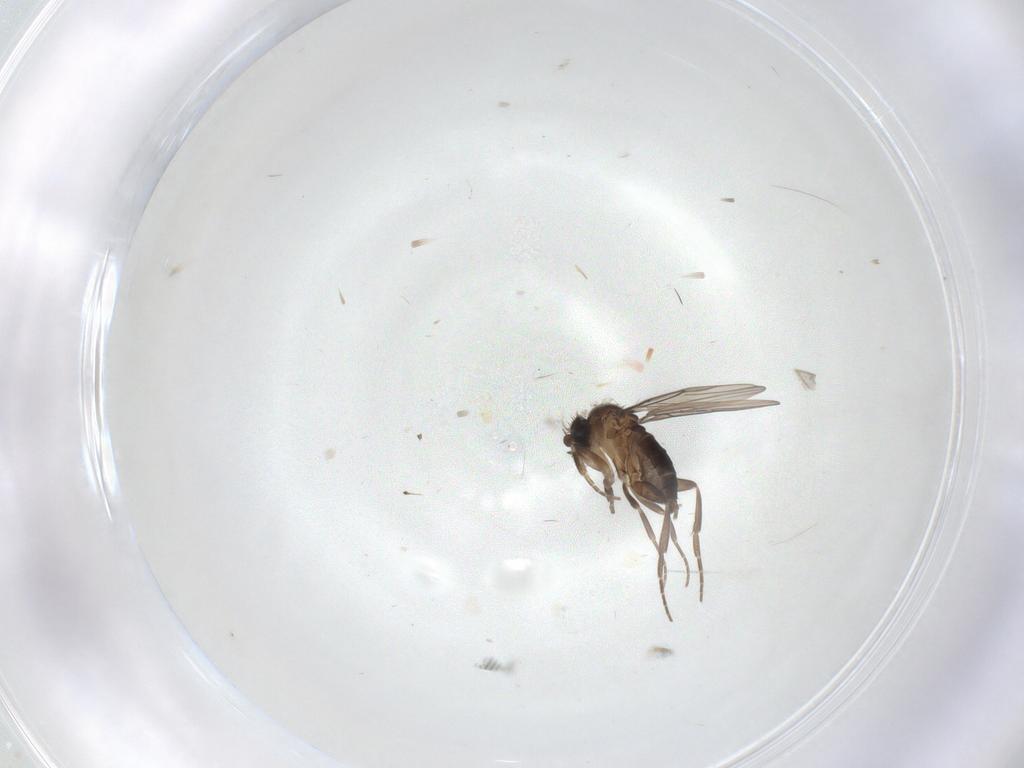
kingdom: Animalia
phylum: Arthropoda
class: Insecta
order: Diptera
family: Phoridae
